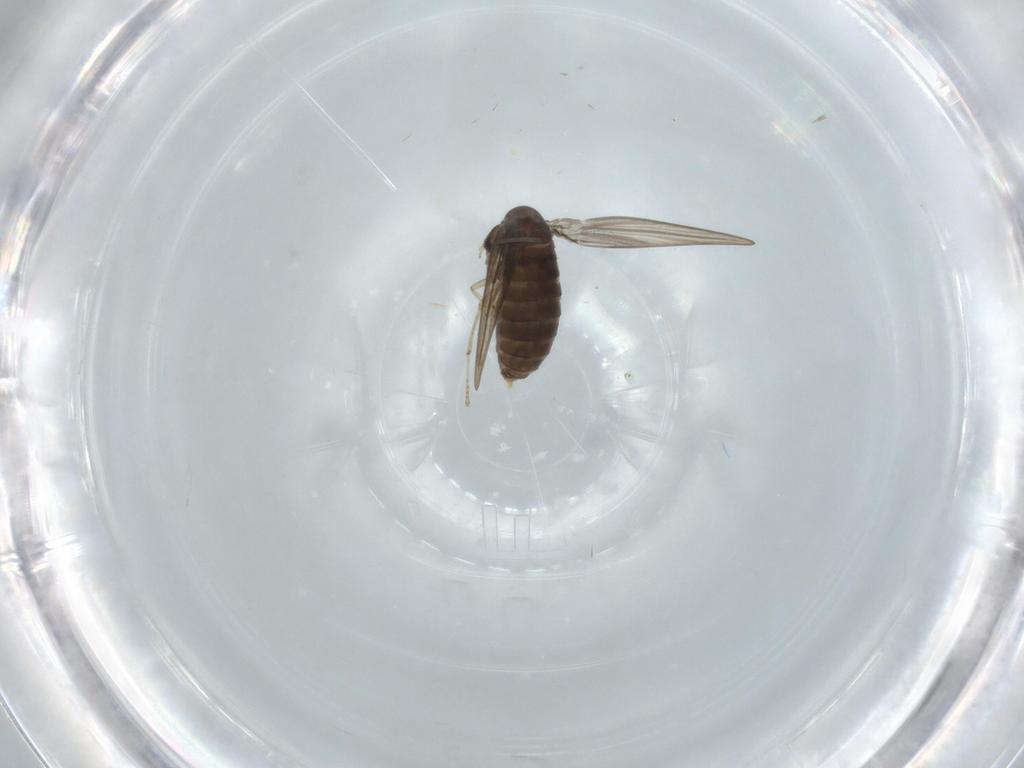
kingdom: Animalia
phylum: Arthropoda
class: Insecta
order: Diptera
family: Psychodidae
